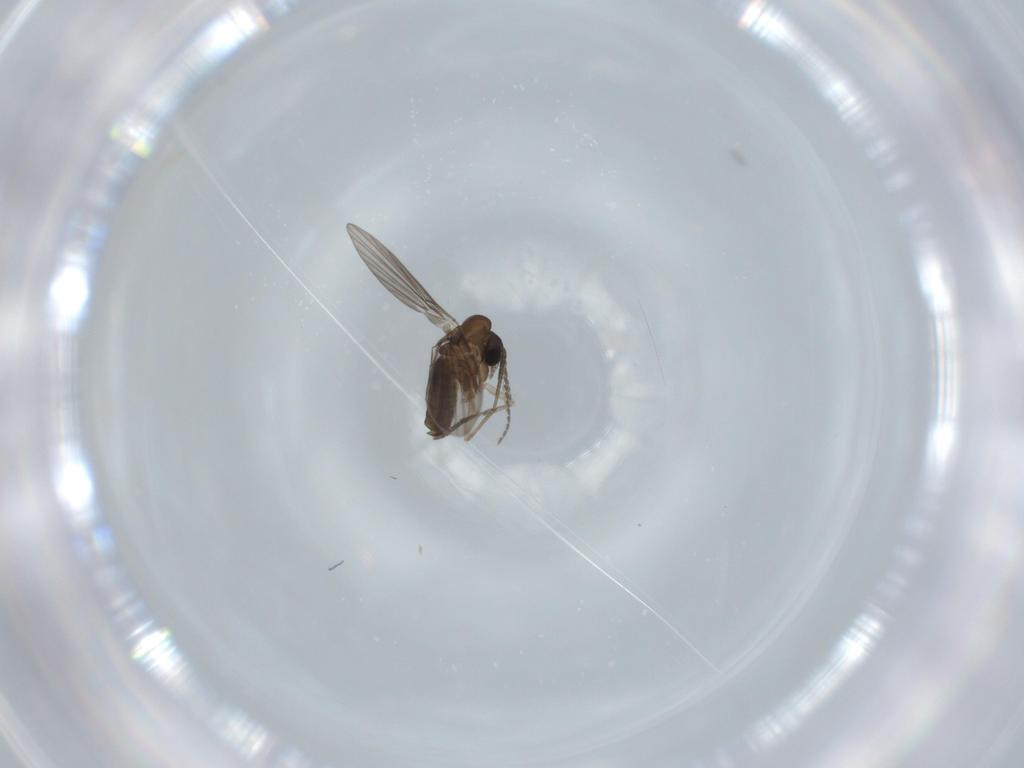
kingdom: Animalia
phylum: Arthropoda
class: Insecta
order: Diptera
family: Psychodidae
